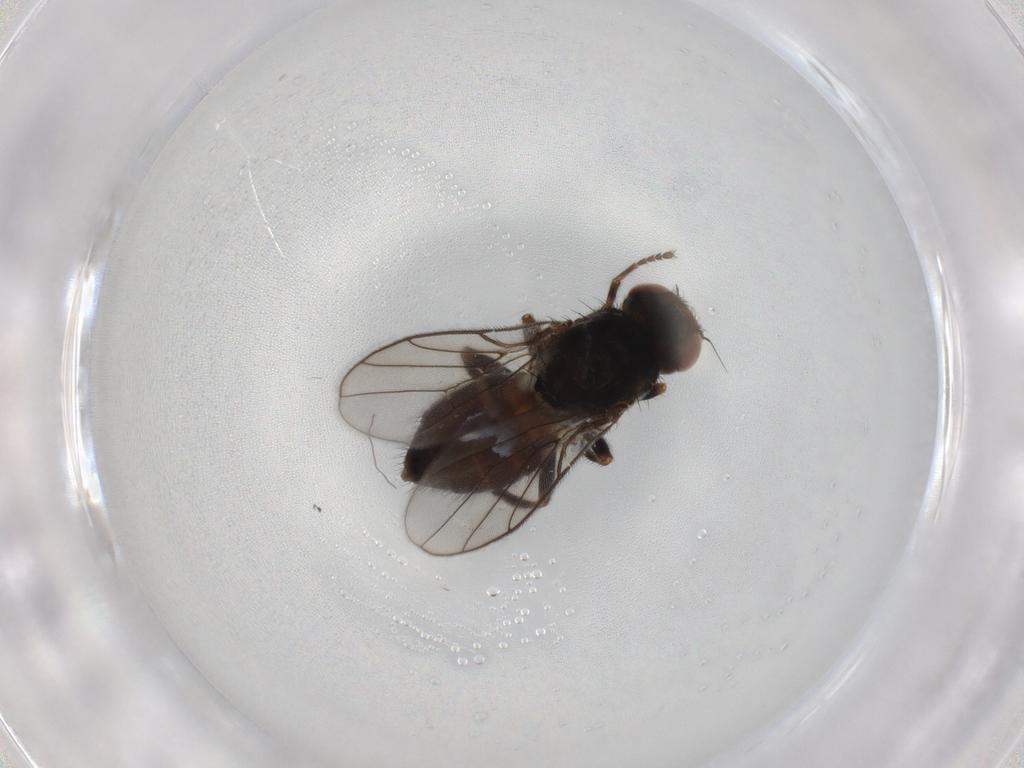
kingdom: Animalia
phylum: Arthropoda
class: Insecta
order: Diptera
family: Chloropidae
